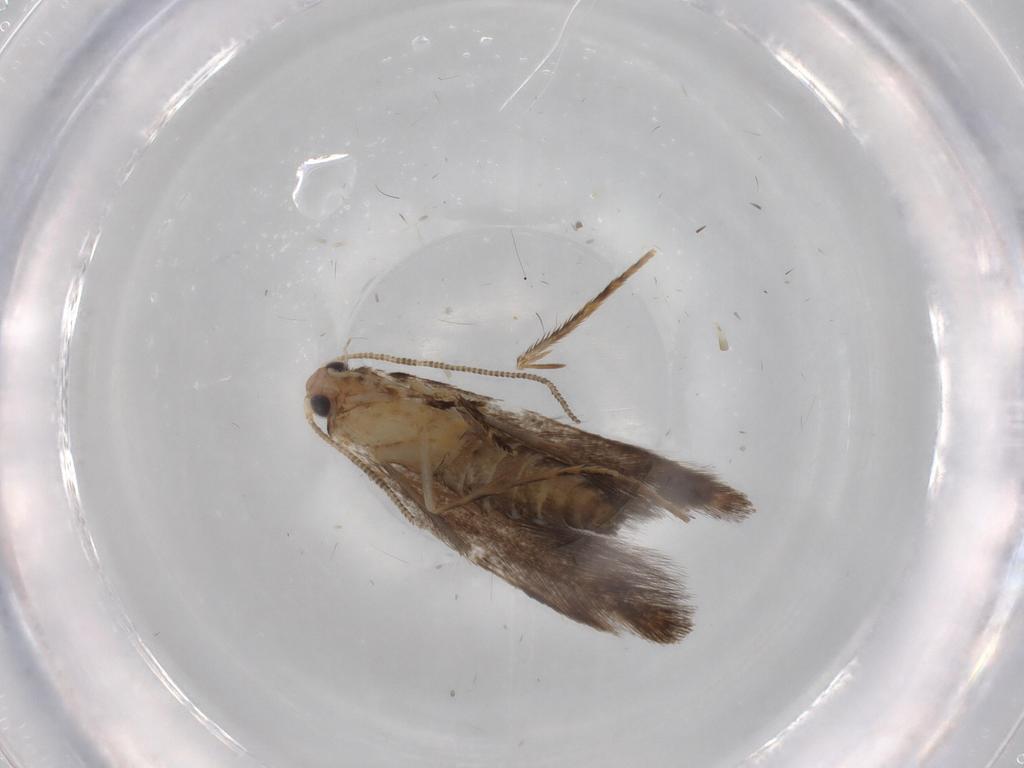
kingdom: Animalia
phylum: Arthropoda
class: Insecta
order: Lepidoptera
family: Tineidae
